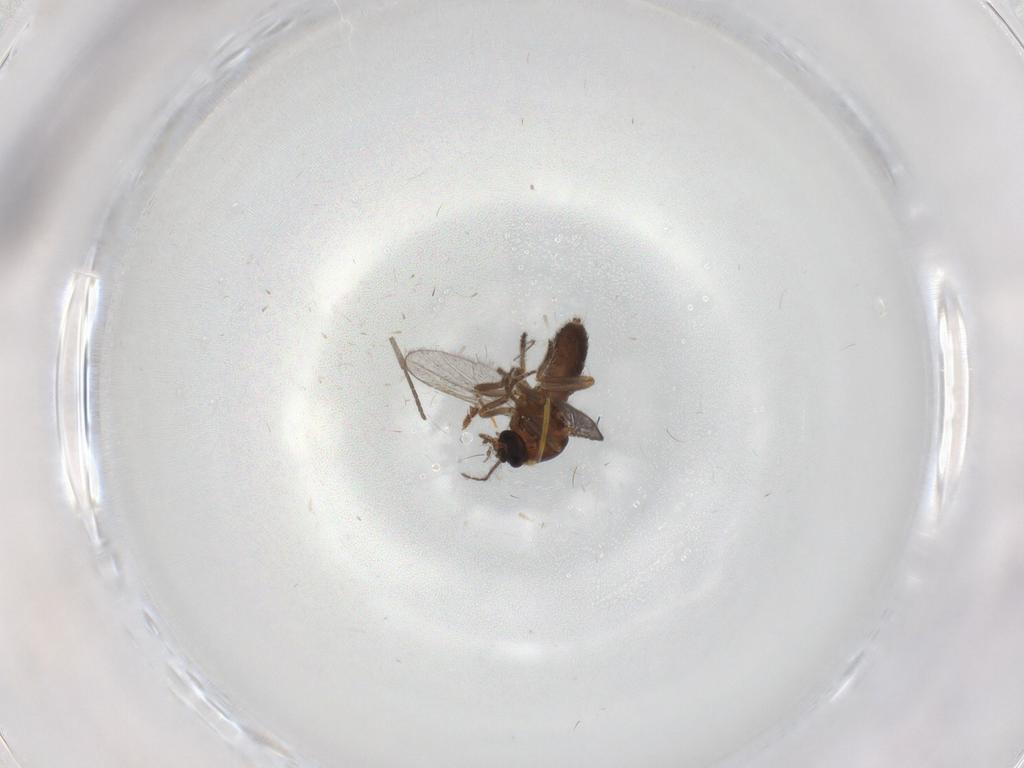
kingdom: Animalia
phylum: Arthropoda
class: Insecta
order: Diptera
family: Ceratopogonidae
